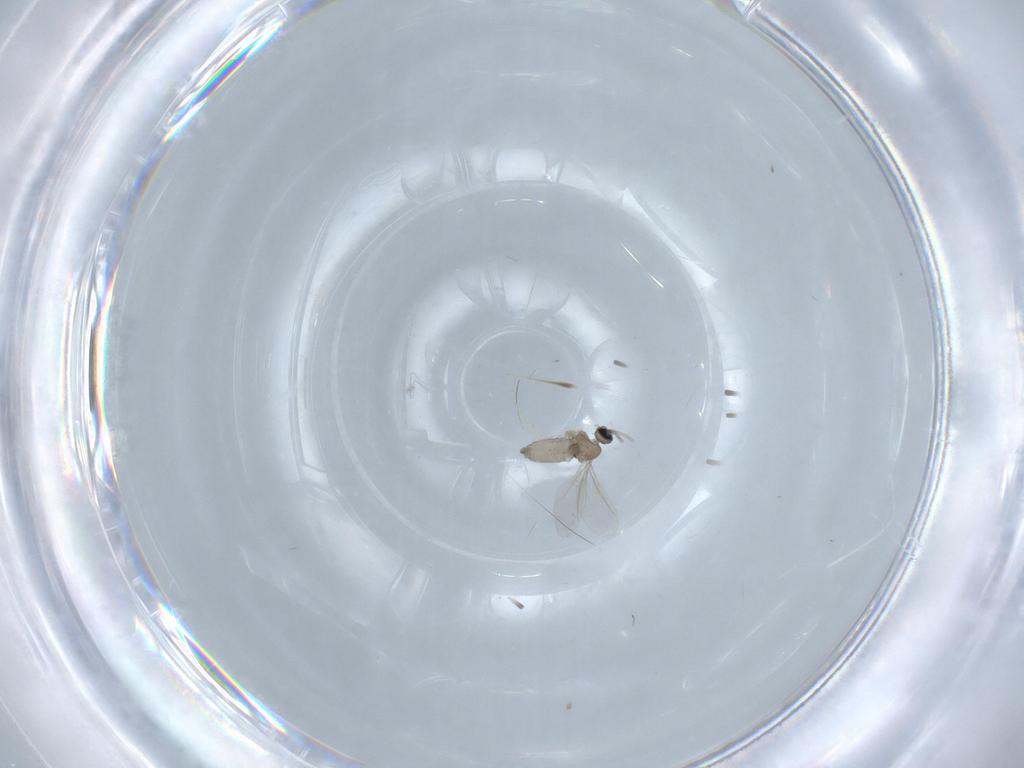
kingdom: Animalia
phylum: Arthropoda
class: Insecta
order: Diptera
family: Cecidomyiidae
